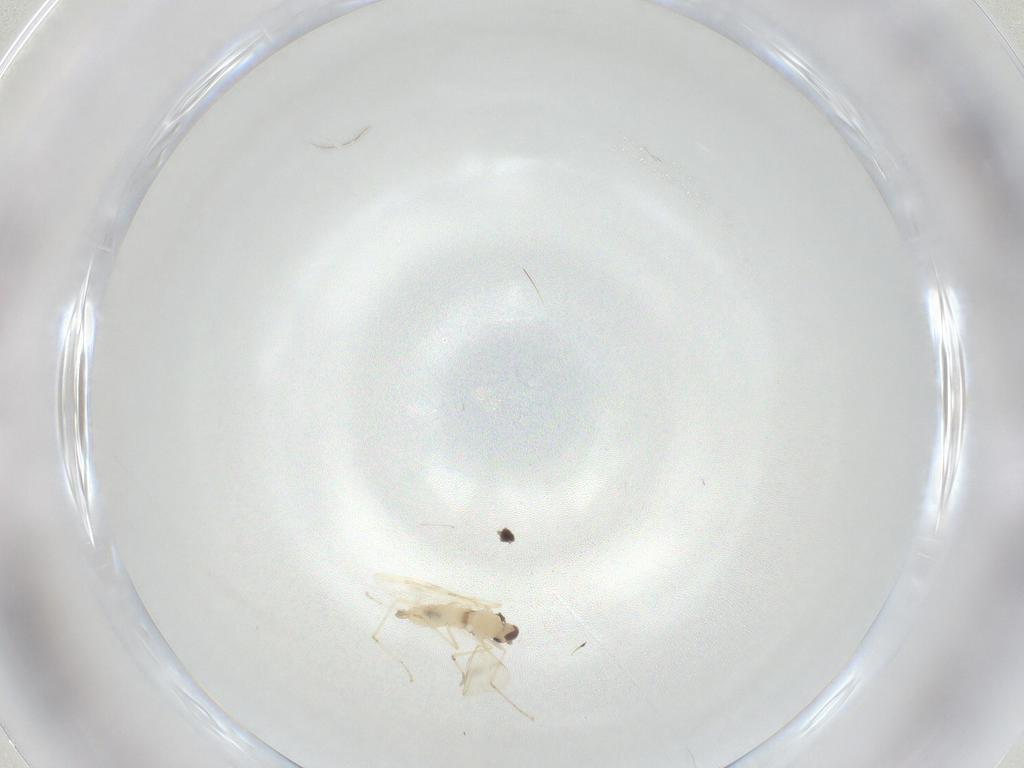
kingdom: Animalia
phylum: Arthropoda
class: Insecta
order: Diptera
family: Cecidomyiidae
